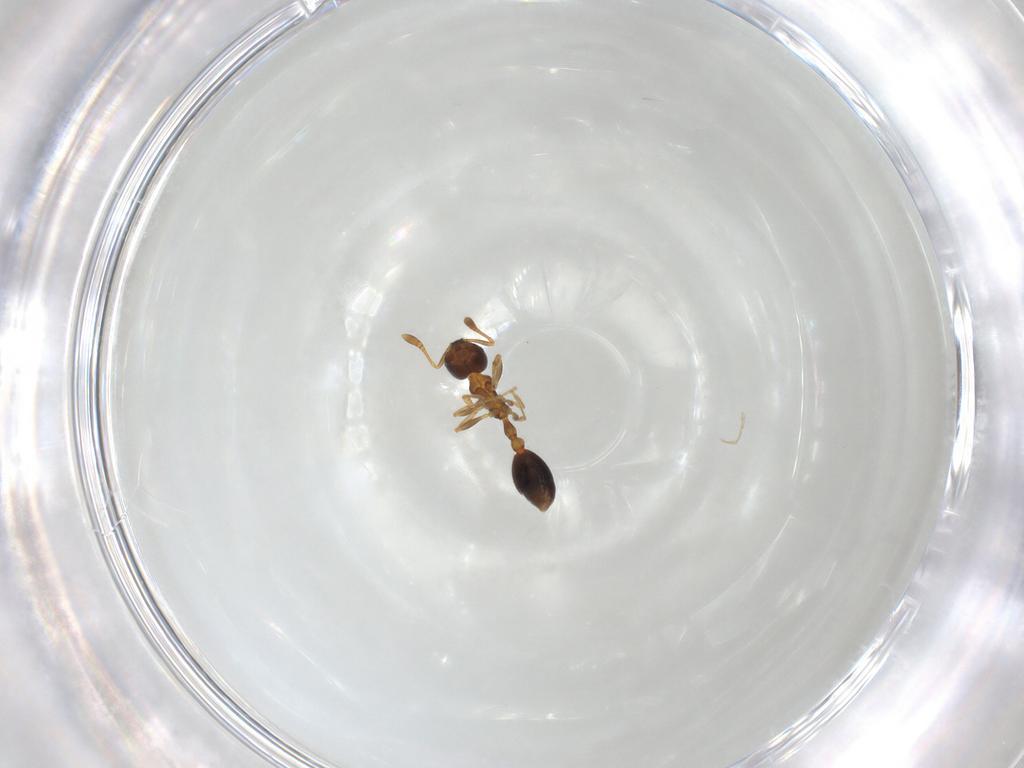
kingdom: Animalia
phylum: Arthropoda
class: Insecta
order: Hymenoptera
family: Formicidae
